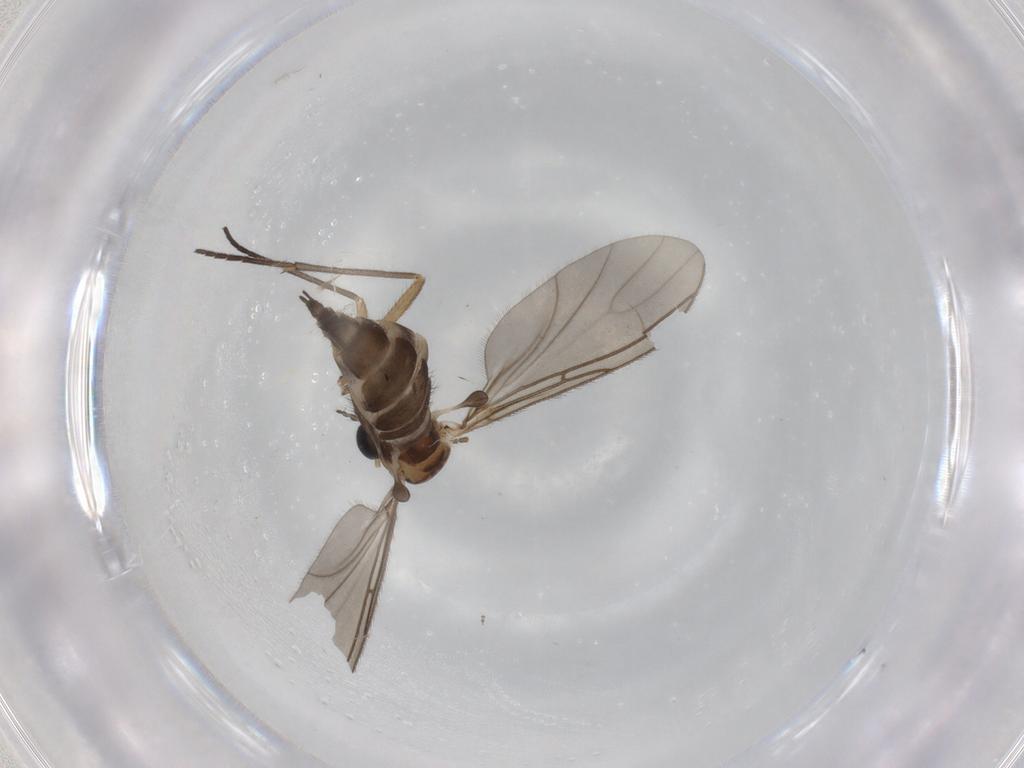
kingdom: Animalia
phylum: Arthropoda
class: Insecta
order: Diptera
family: Sciaridae
